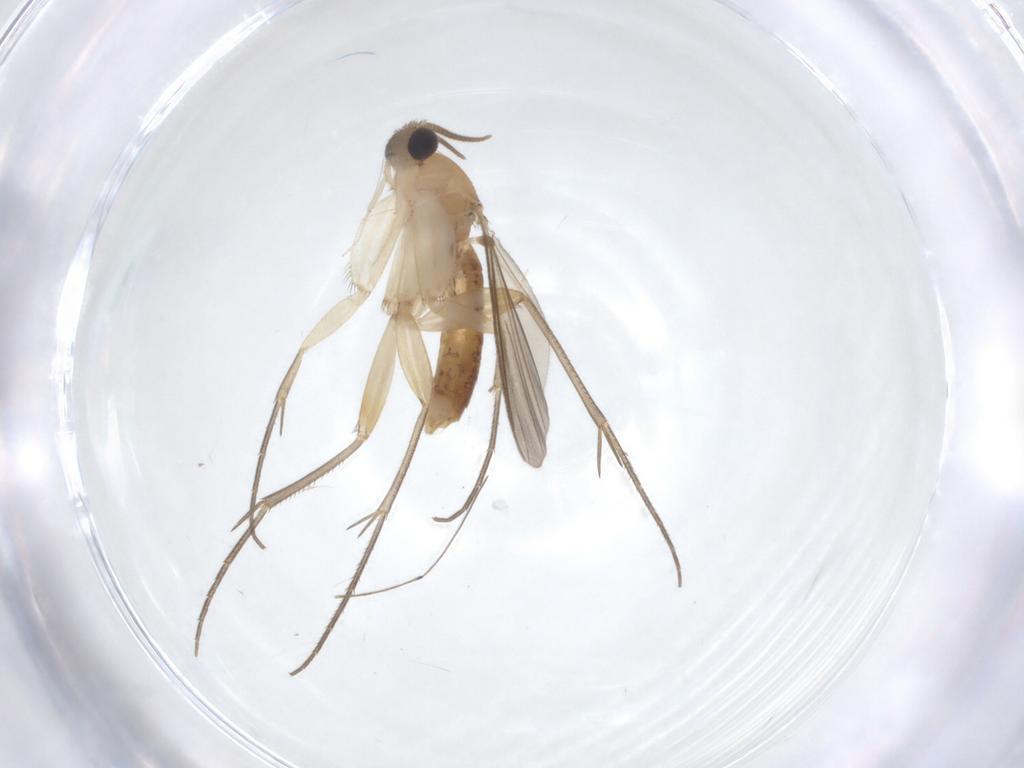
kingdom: Animalia
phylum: Arthropoda
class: Insecta
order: Diptera
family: Mycetophilidae
